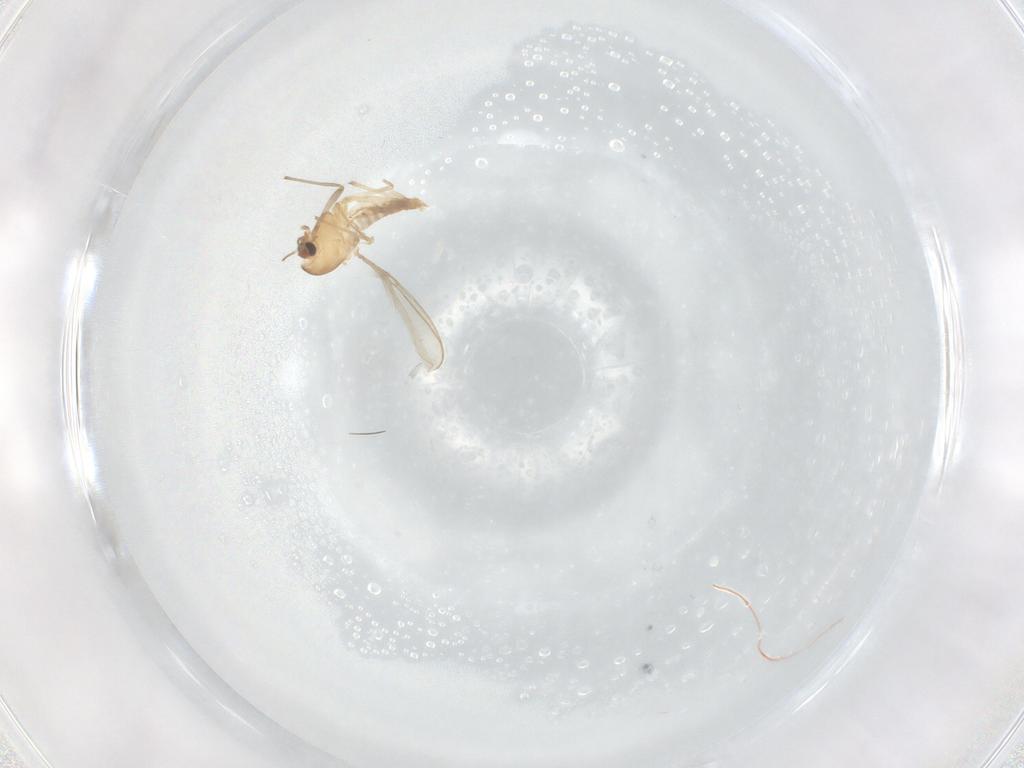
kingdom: Animalia
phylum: Arthropoda
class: Insecta
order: Diptera
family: Chironomidae
